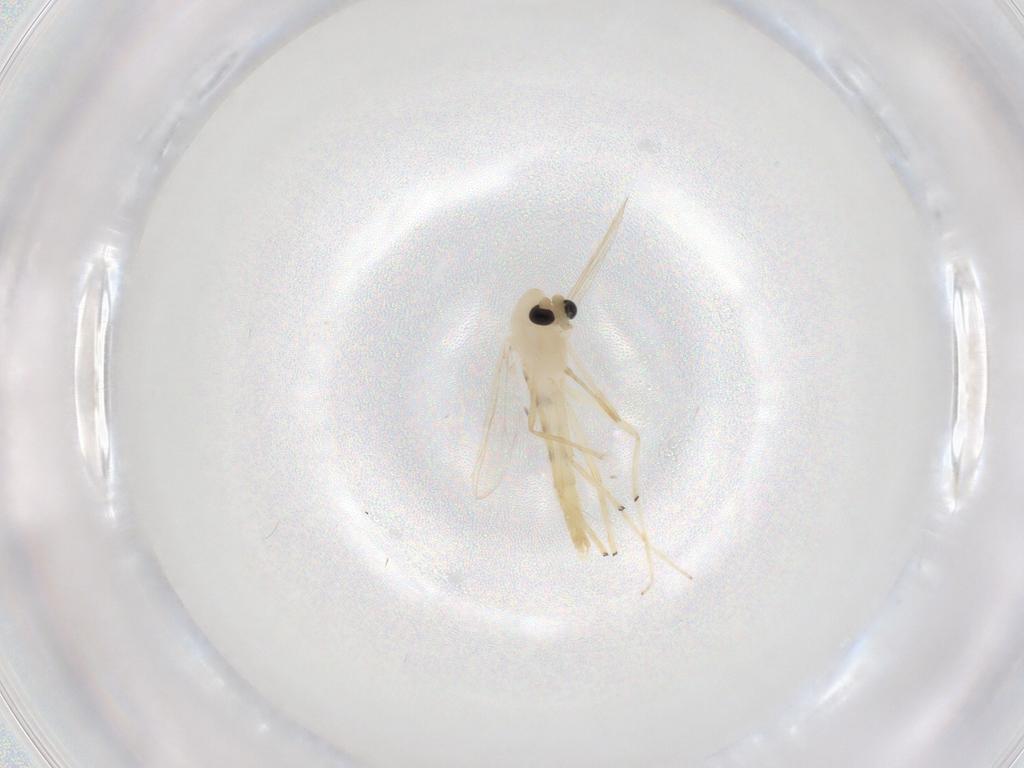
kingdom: Animalia
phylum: Arthropoda
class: Insecta
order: Diptera
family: Chironomidae
